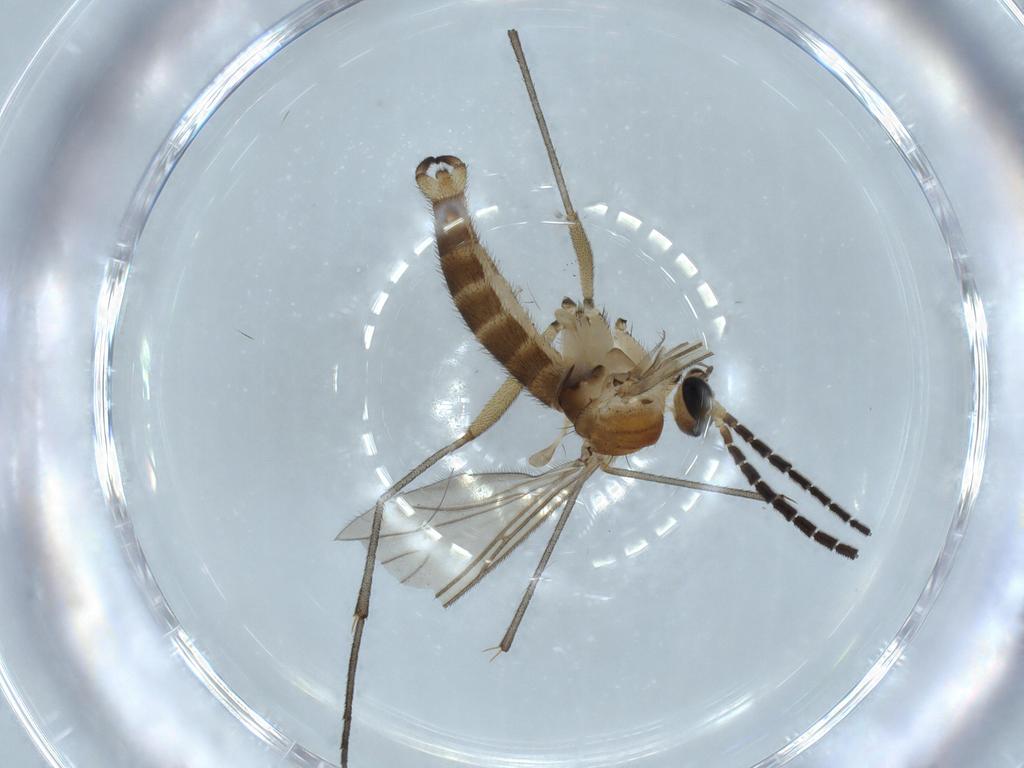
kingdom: Animalia
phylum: Arthropoda
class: Insecta
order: Diptera
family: Sciaridae
